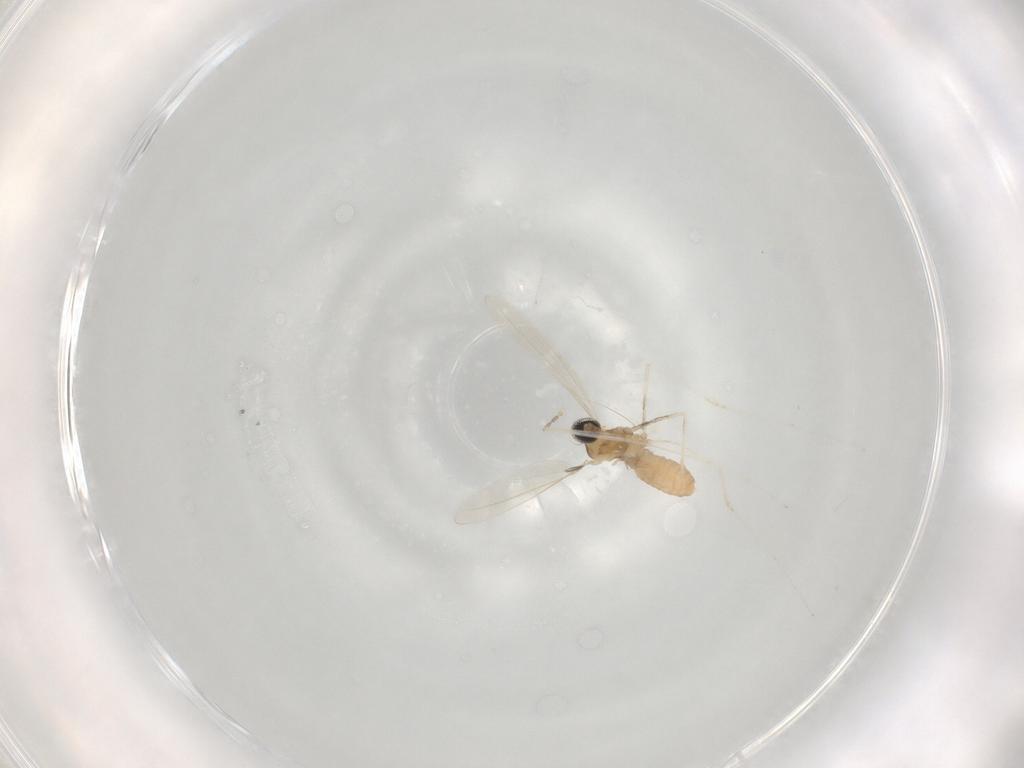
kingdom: Animalia
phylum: Arthropoda
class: Insecta
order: Diptera
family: Cecidomyiidae
